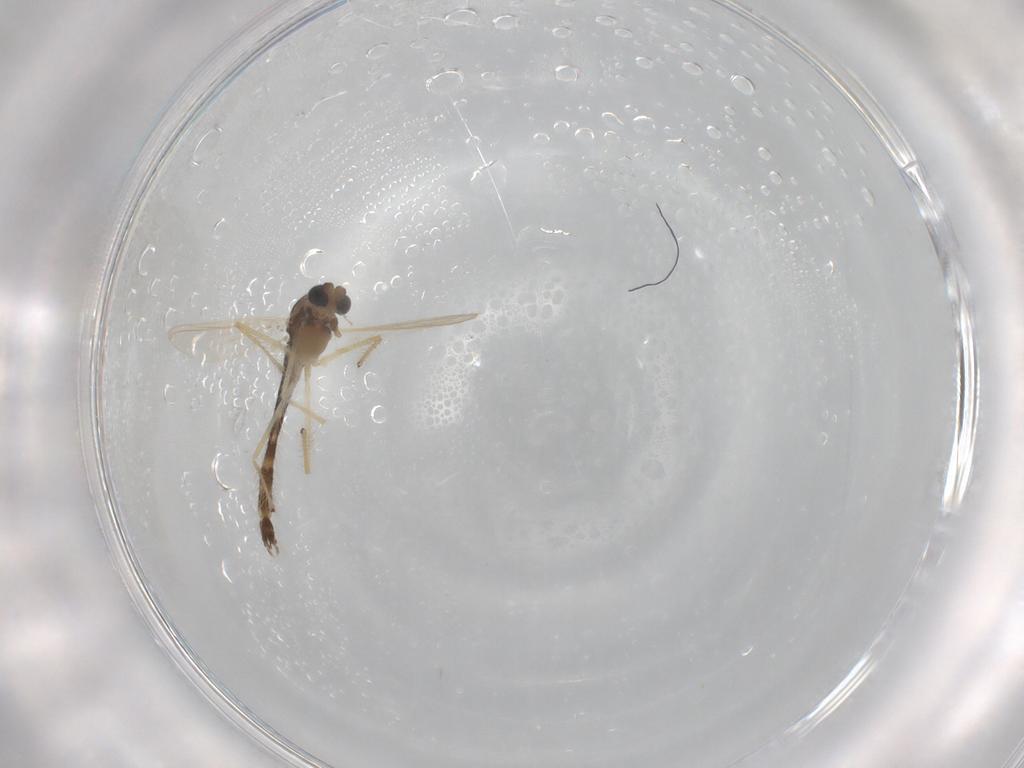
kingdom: Animalia
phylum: Arthropoda
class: Insecta
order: Diptera
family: Chironomidae
